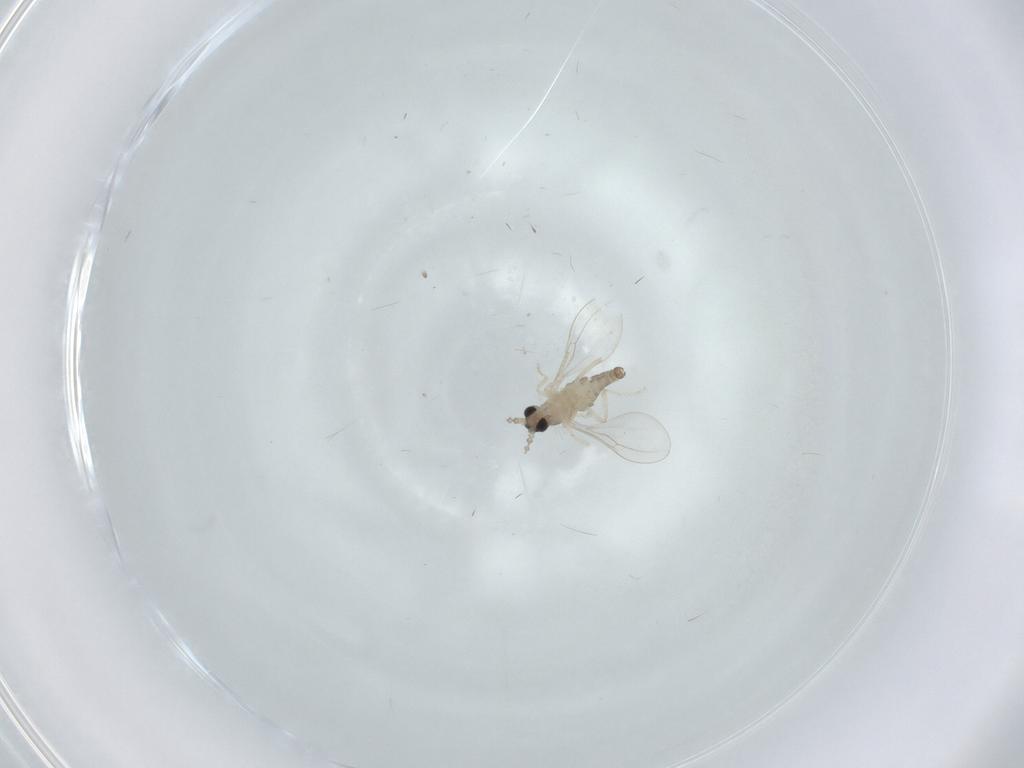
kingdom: Animalia
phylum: Arthropoda
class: Insecta
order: Diptera
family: Cecidomyiidae
